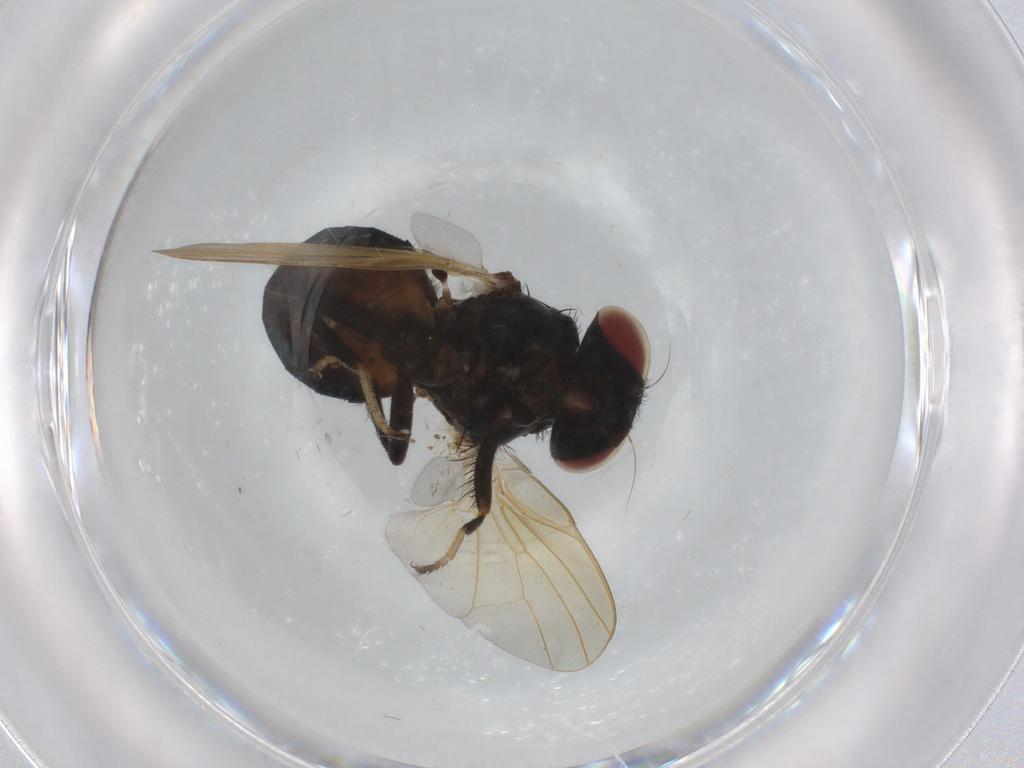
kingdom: Animalia
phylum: Arthropoda
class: Insecta
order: Diptera
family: Lonchaeidae
